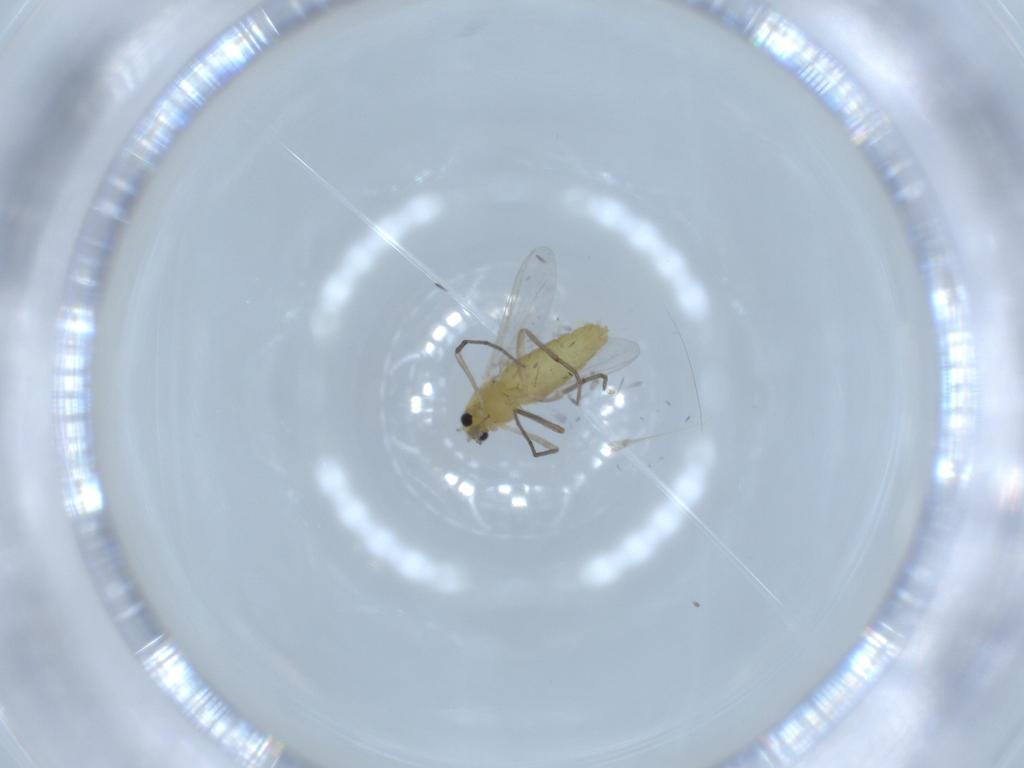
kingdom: Animalia
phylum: Arthropoda
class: Insecta
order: Diptera
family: Chironomidae
